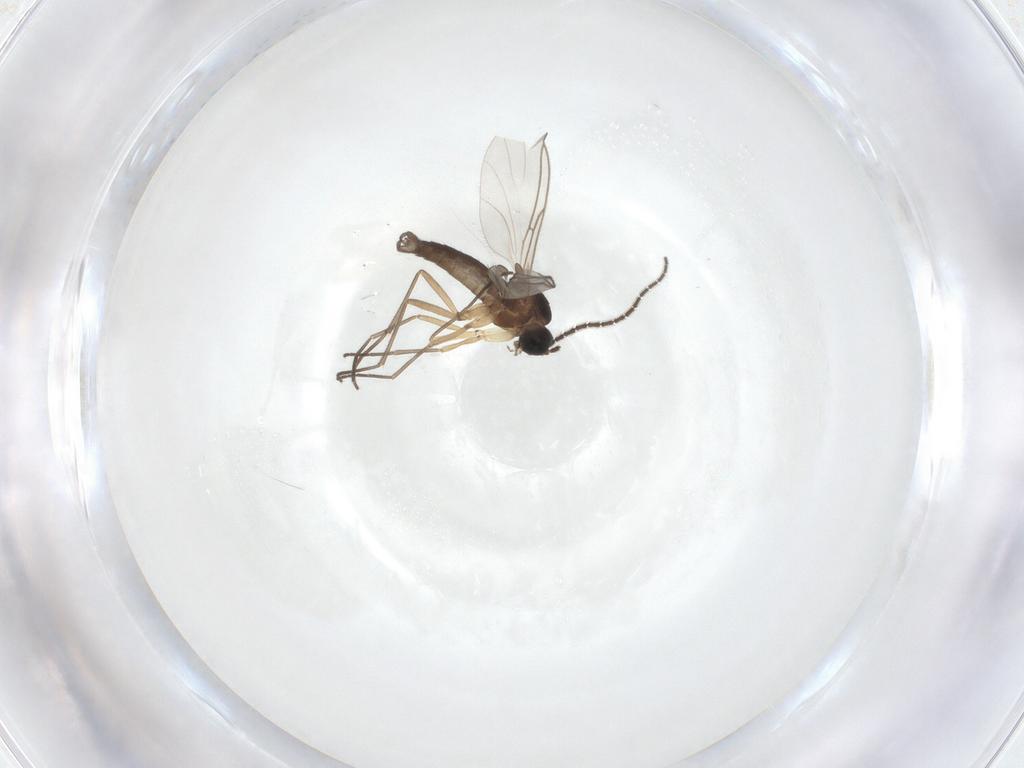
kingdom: Animalia
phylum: Arthropoda
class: Insecta
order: Diptera
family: Sciaridae
